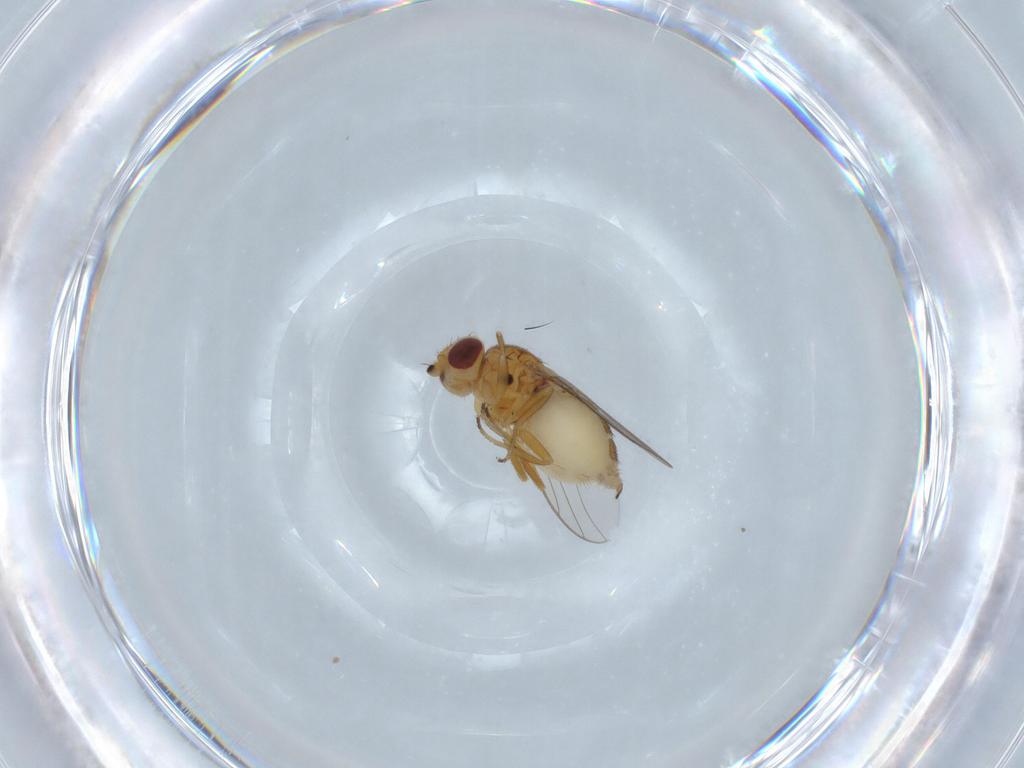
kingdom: Animalia
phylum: Arthropoda
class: Insecta
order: Diptera
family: Chloropidae
